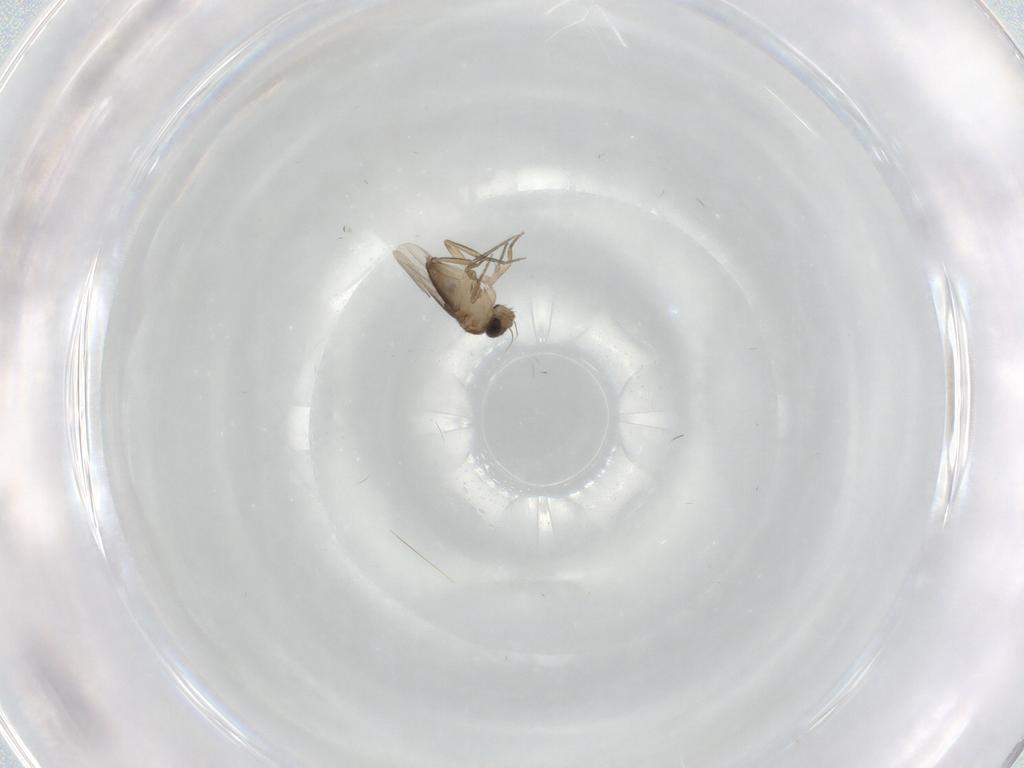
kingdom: Animalia
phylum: Arthropoda
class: Insecta
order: Diptera
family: Phoridae
